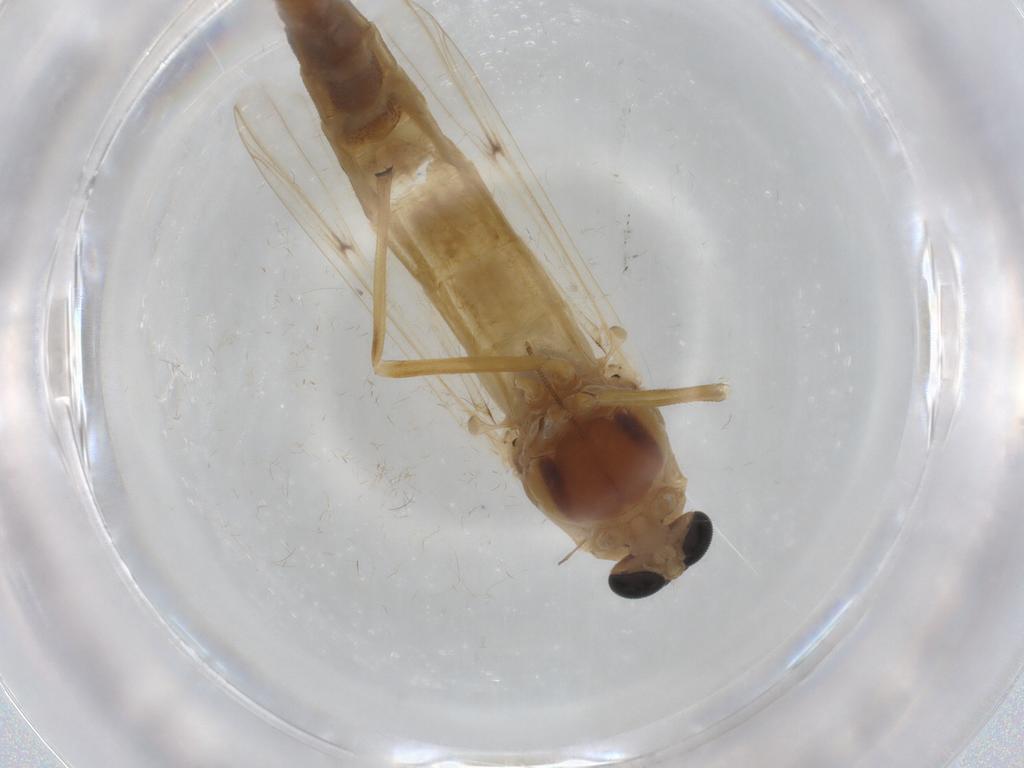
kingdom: Animalia
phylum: Arthropoda
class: Insecta
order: Diptera
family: Chironomidae
